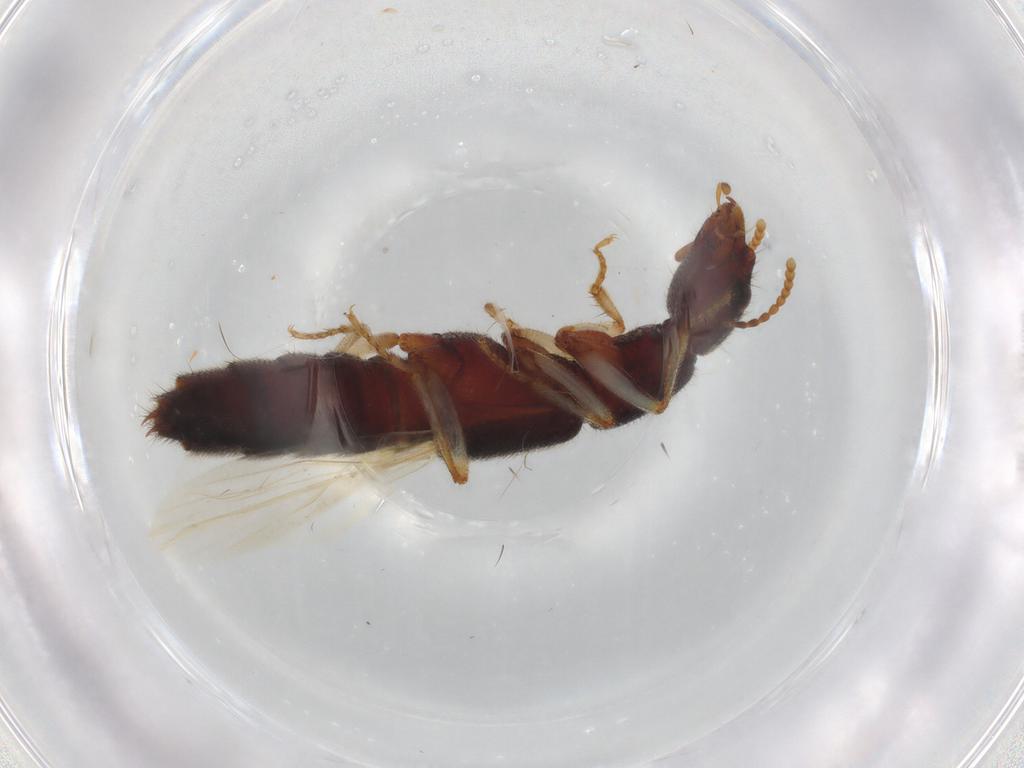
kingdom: Animalia
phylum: Arthropoda
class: Insecta
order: Coleoptera
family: Staphylinidae
